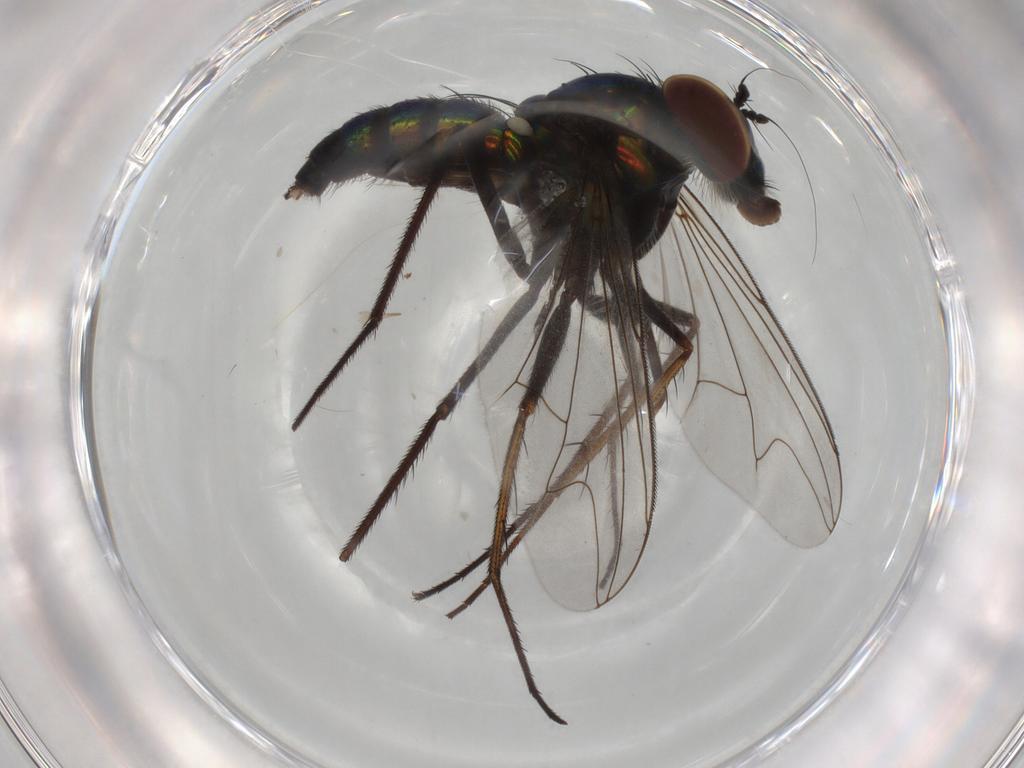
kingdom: Animalia
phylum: Arthropoda
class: Insecta
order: Diptera
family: Dolichopodidae
